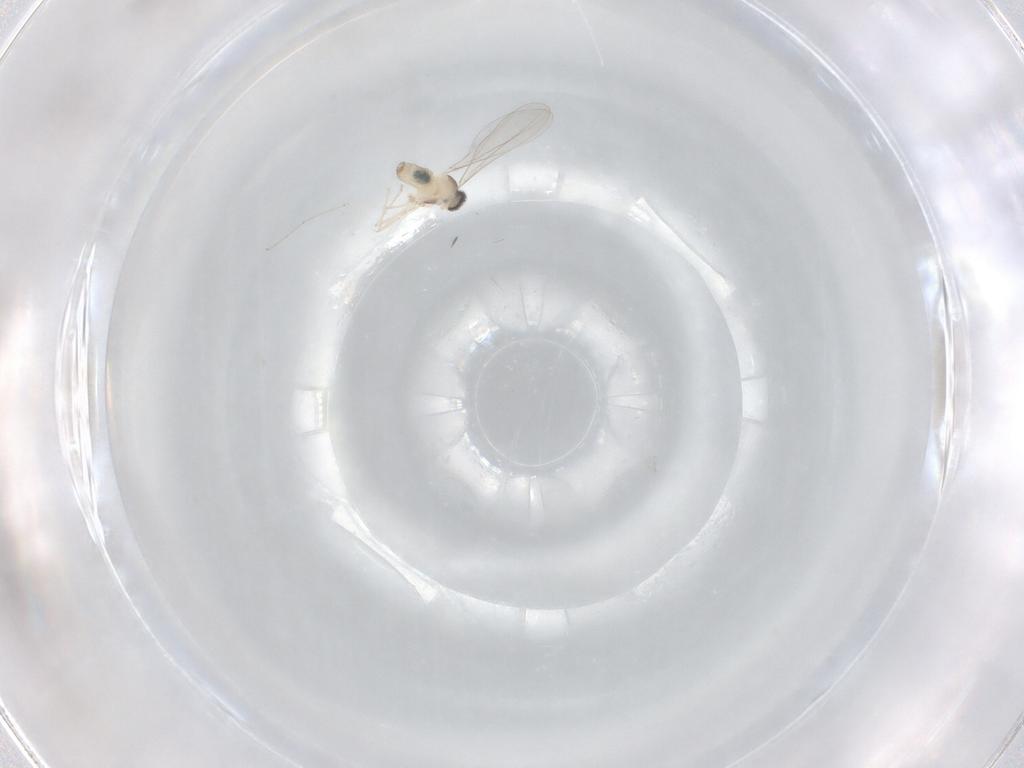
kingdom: Animalia
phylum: Arthropoda
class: Insecta
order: Diptera
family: Cecidomyiidae
